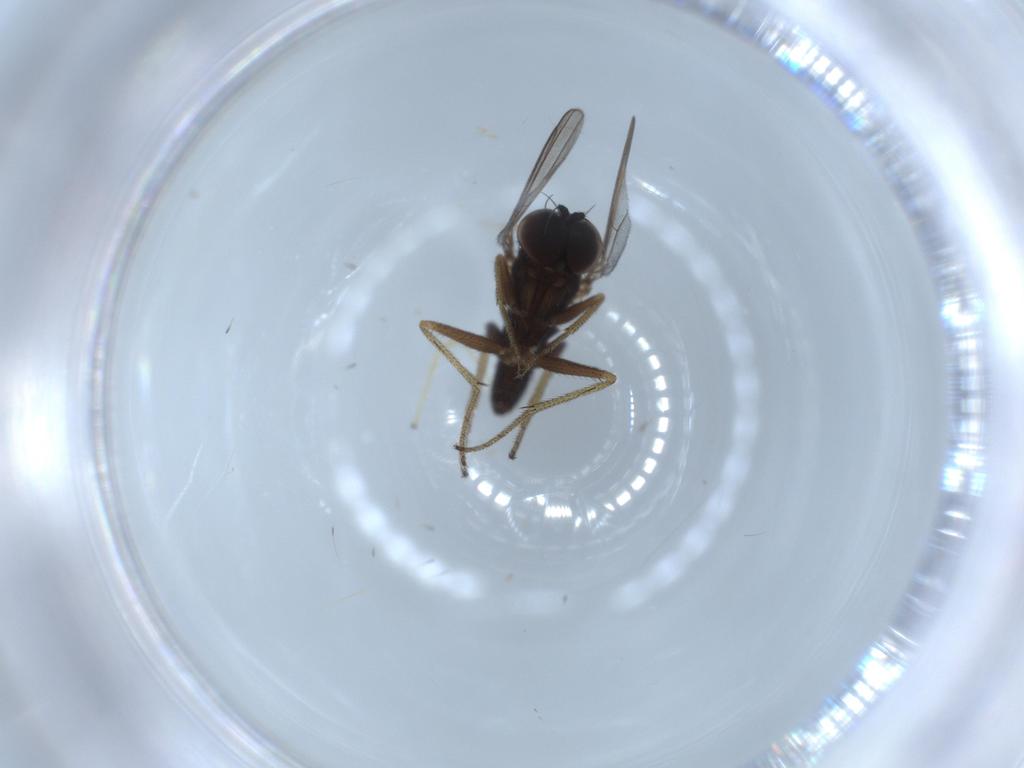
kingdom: Animalia
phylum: Arthropoda
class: Insecta
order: Diptera
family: Chironomidae
